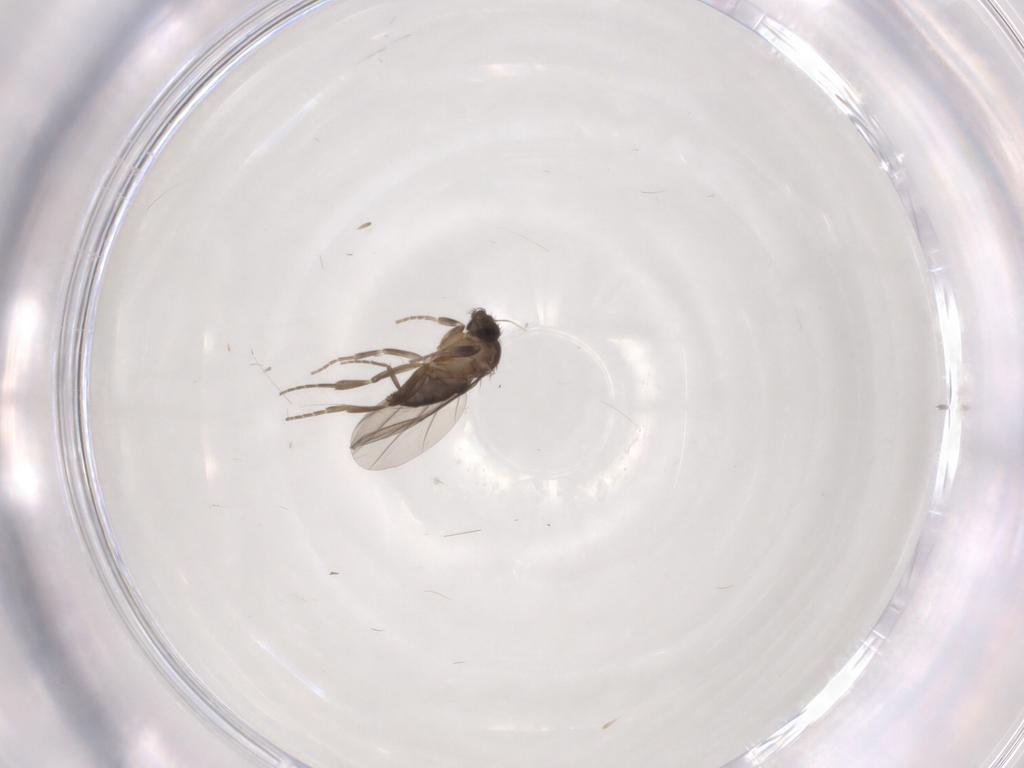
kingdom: Animalia
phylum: Arthropoda
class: Insecta
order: Diptera
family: Phoridae
